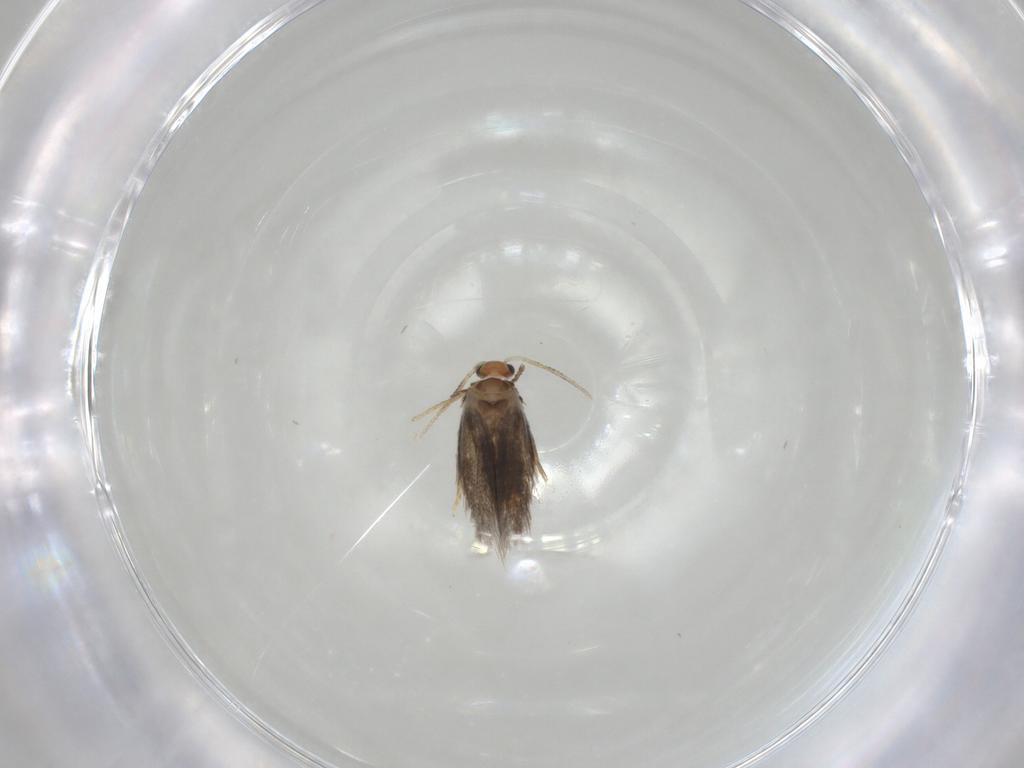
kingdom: Animalia
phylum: Arthropoda
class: Insecta
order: Lepidoptera
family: Nepticulidae
